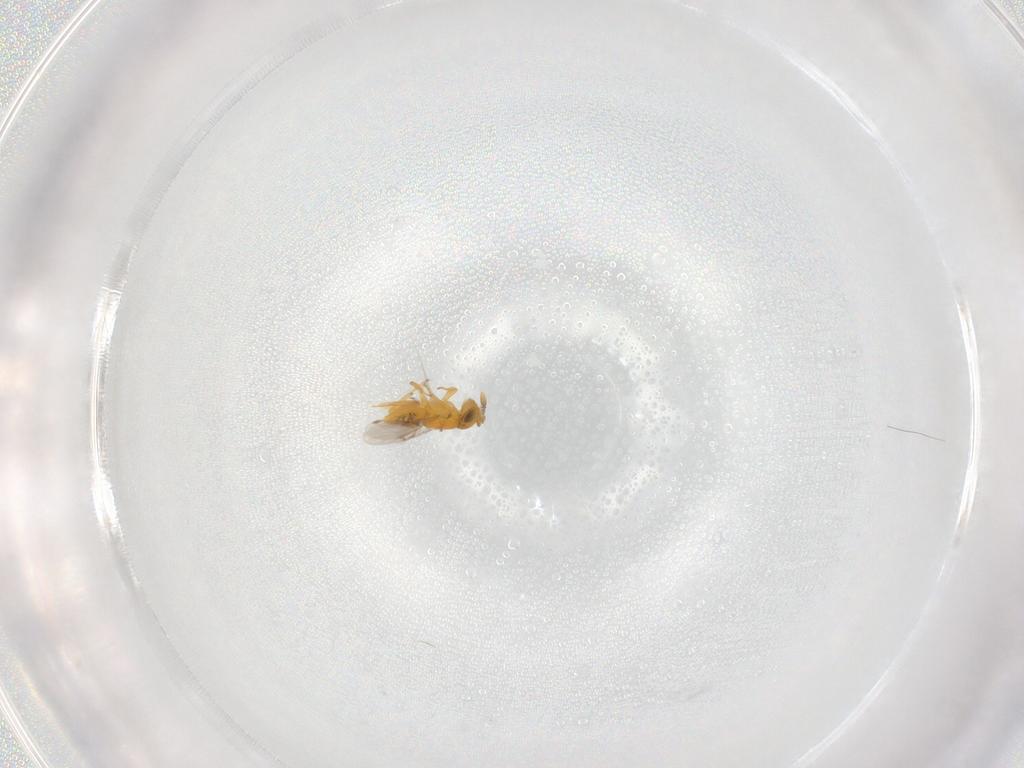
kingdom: Animalia
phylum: Arthropoda
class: Insecta
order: Hymenoptera
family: Encyrtidae
